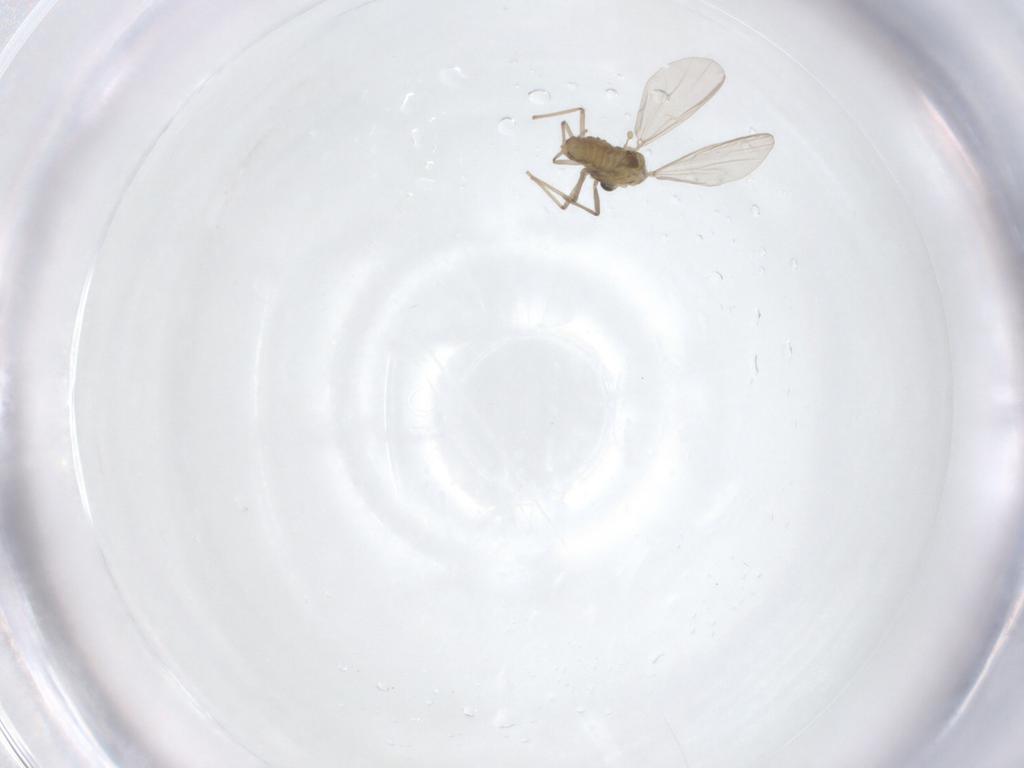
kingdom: Animalia
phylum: Arthropoda
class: Insecta
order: Diptera
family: Chironomidae
